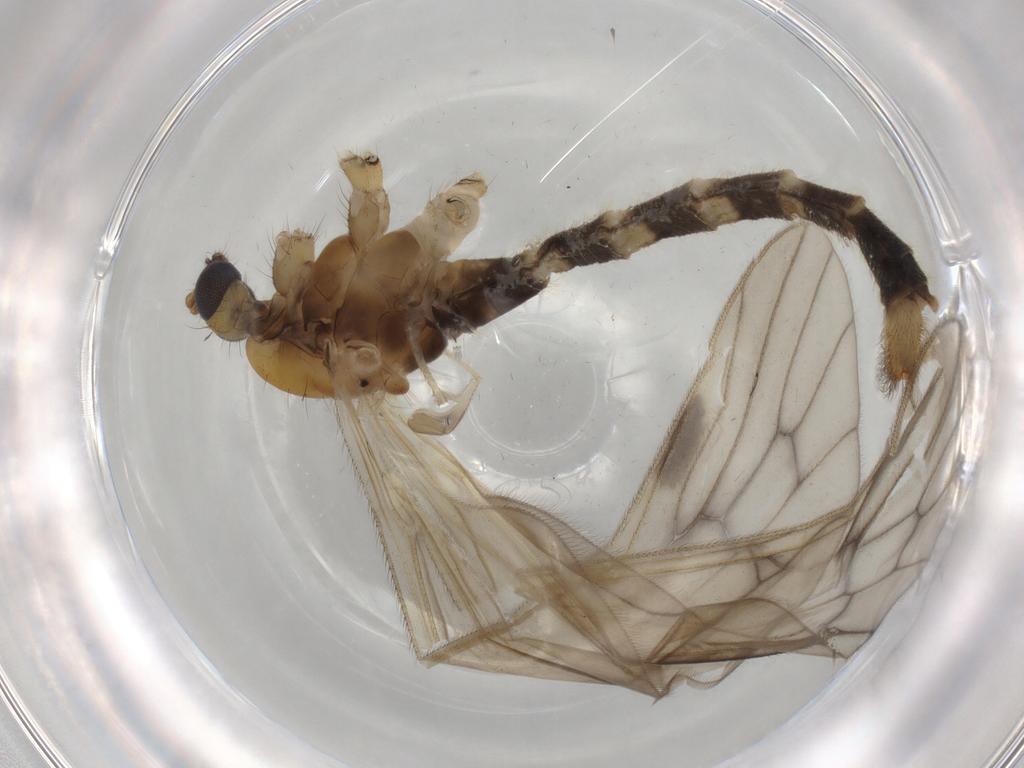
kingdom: Animalia
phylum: Arthropoda
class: Insecta
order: Diptera
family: Limoniidae
